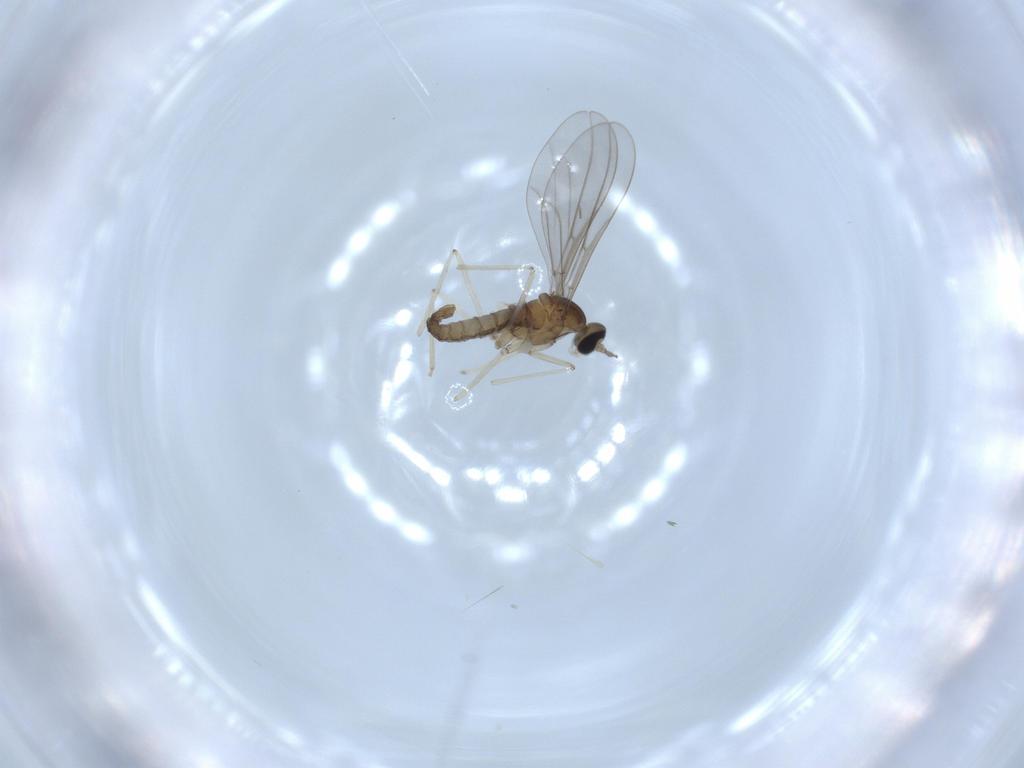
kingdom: Animalia
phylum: Arthropoda
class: Insecta
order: Diptera
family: Cecidomyiidae
